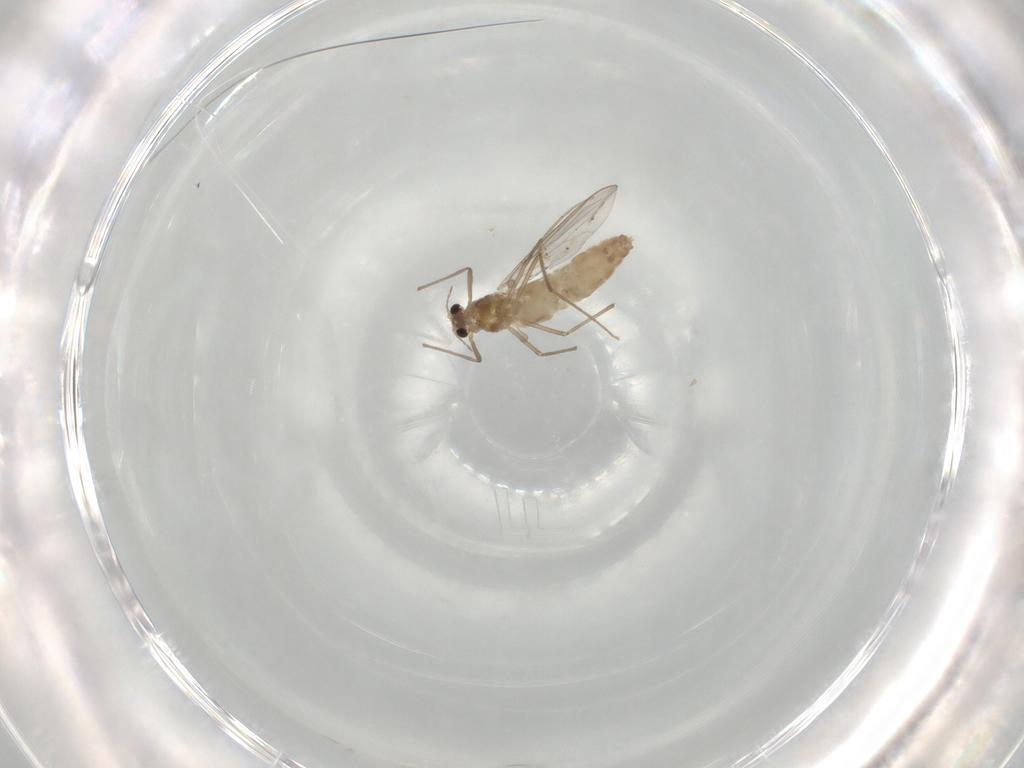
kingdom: Animalia
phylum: Arthropoda
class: Insecta
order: Diptera
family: Chironomidae
